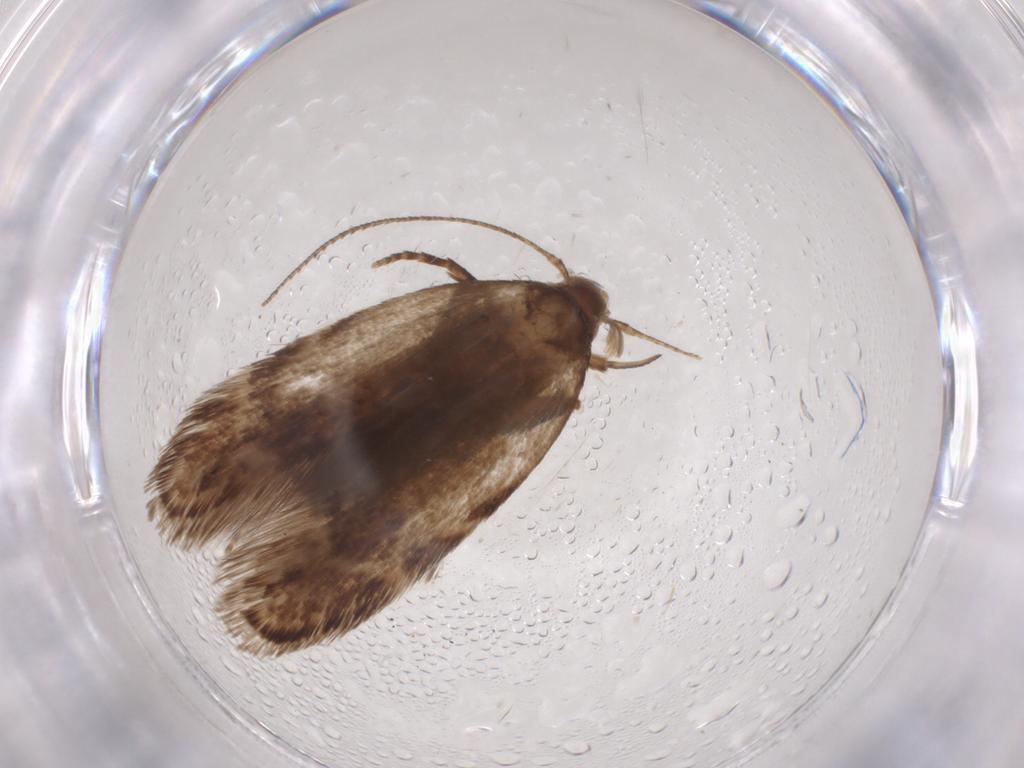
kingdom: Animalia
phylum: Arthropoda
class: Insecta
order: Lepidoptera
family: Gelechiidae
